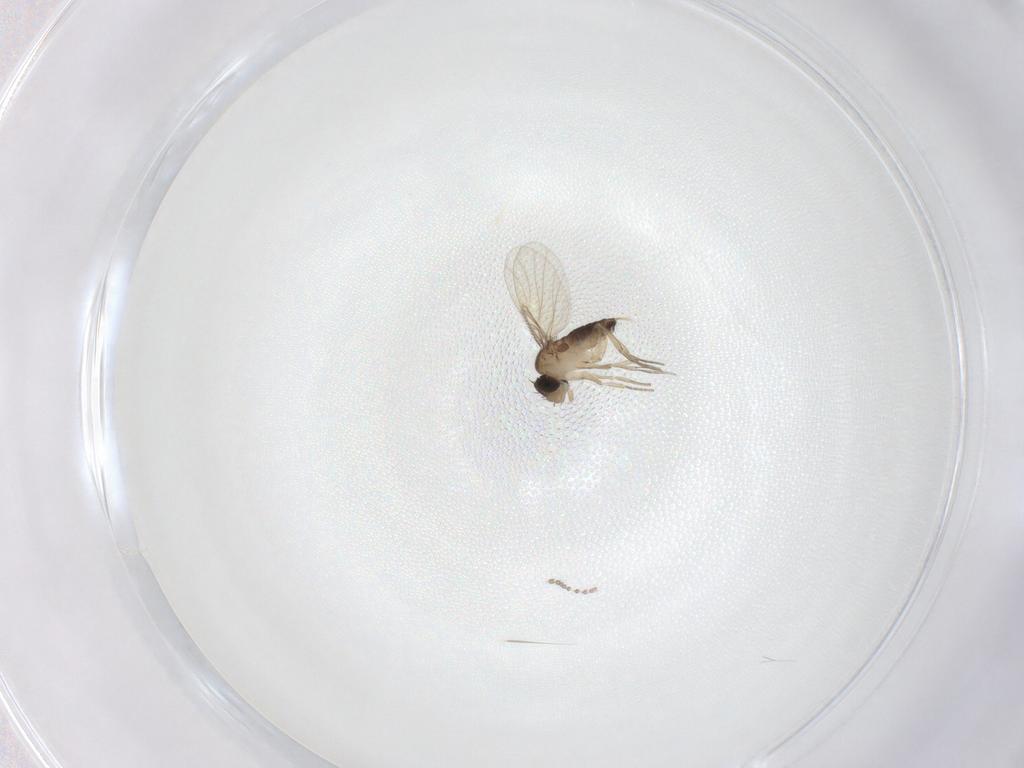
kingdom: Animalia
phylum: Arthropoda
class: Insecta
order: Diptera
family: Phoridae
